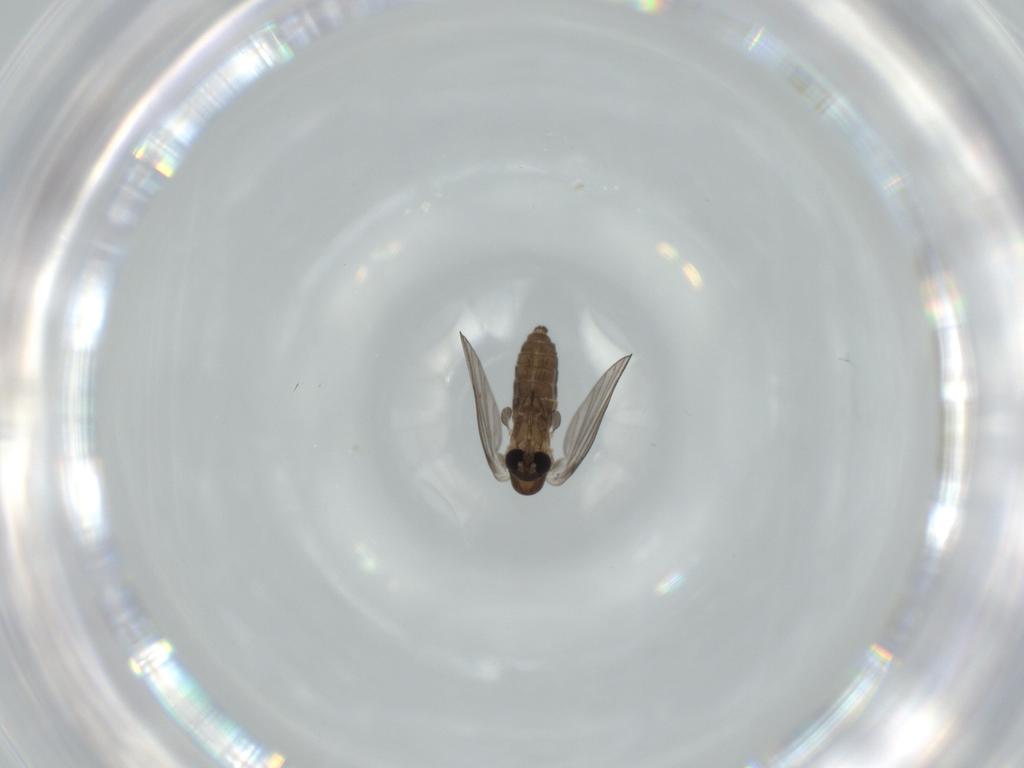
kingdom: Animalia
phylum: Arthropoda
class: Insecta
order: Diptera
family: Psychodidae
